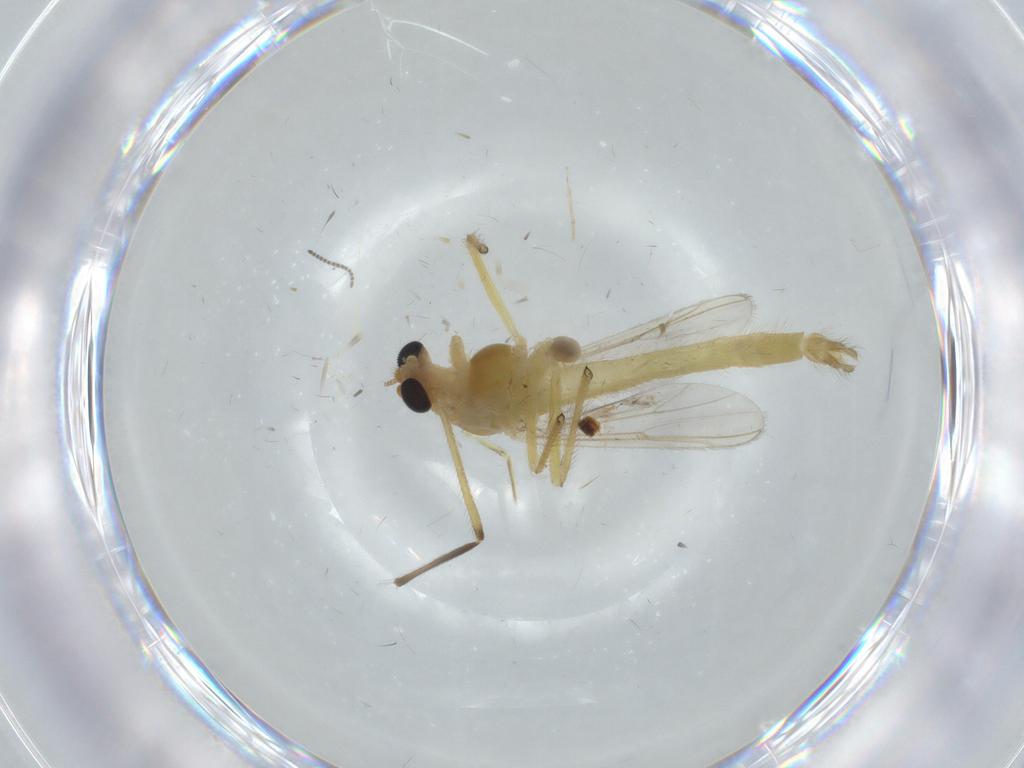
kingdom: Animalia
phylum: Arthropoda
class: Insecta
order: Diptera
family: Chironomidae
